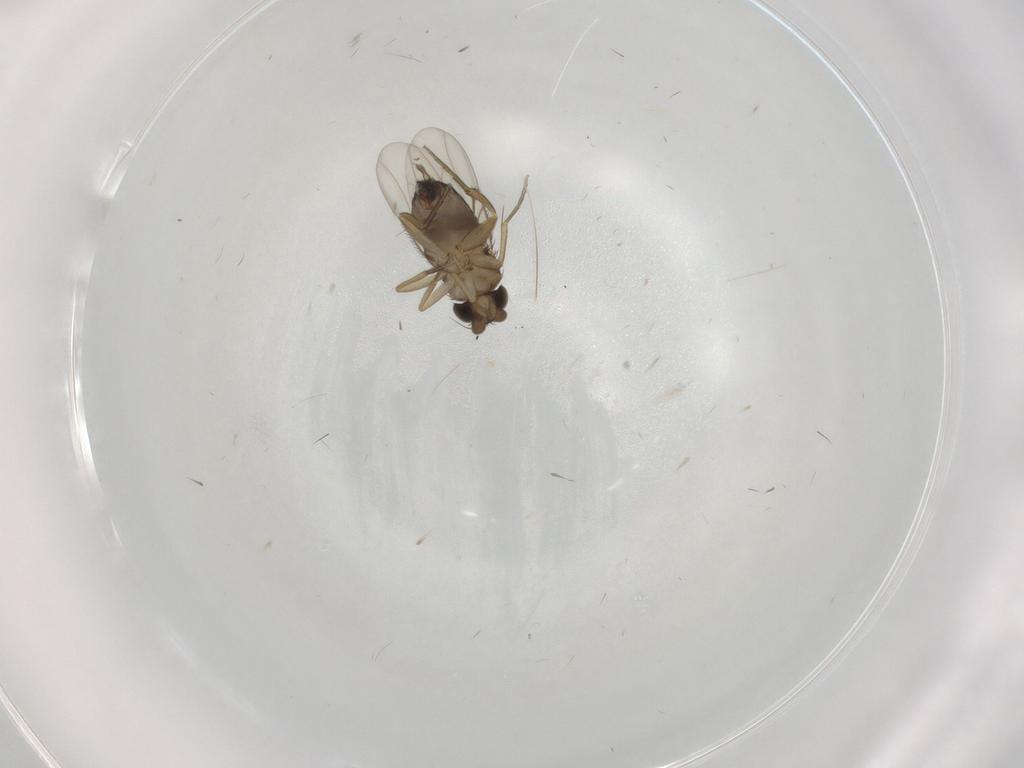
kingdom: Animalia
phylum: Arthropoda
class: Insecta
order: Diptera
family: Phoridae
